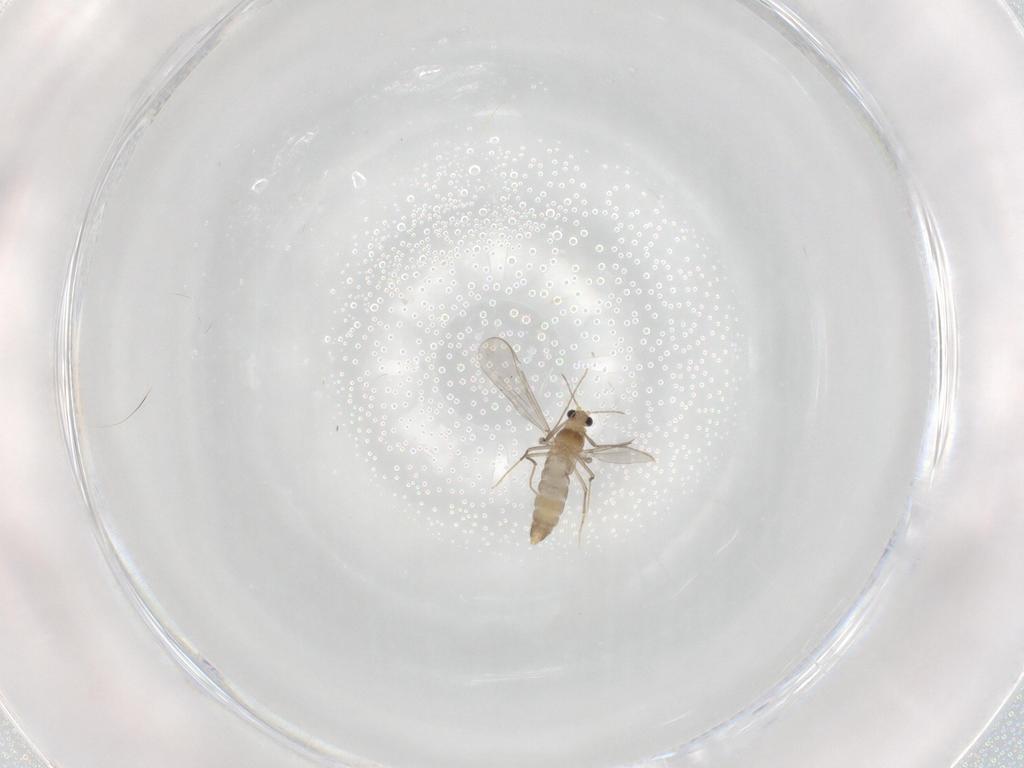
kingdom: Animalia
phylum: Arthropoda
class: Insecta
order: Diptera
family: Chironomidae
